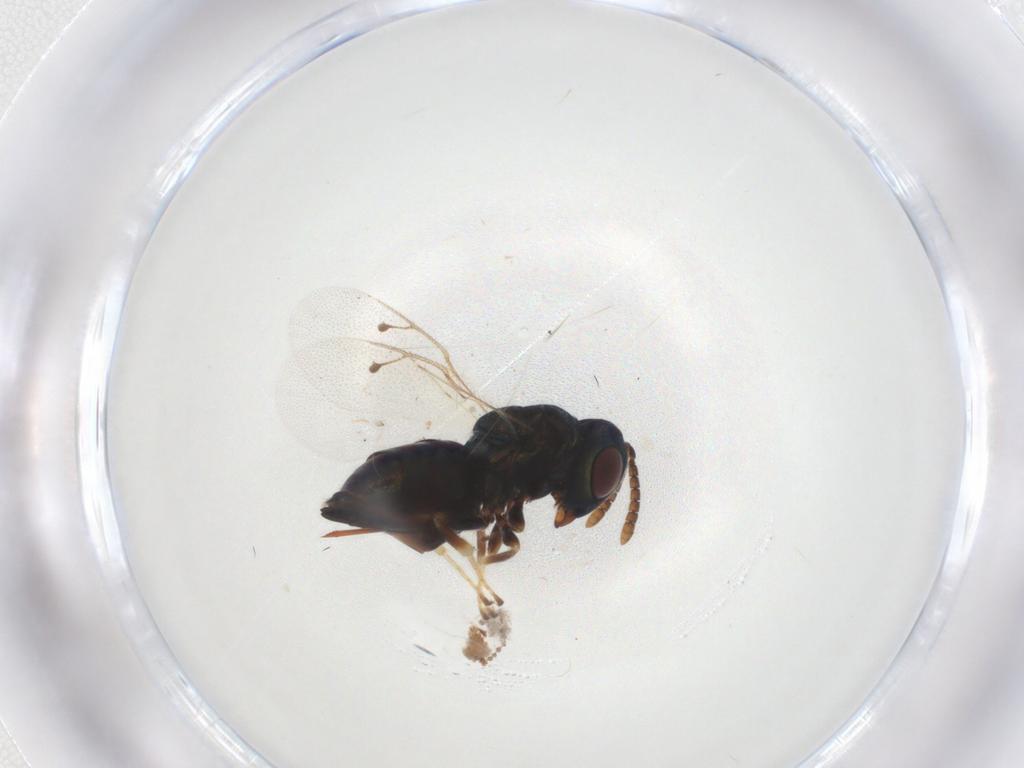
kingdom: Animalia
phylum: Arthropoda
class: Insecta
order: Hymenoptera
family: Pteromalidae
